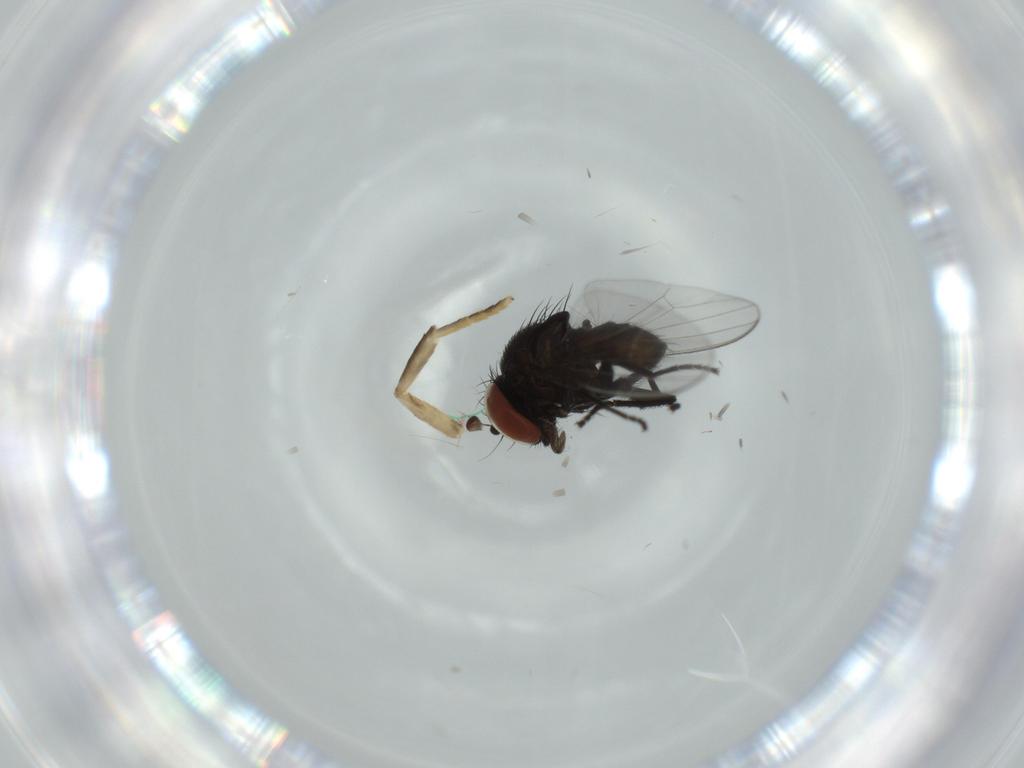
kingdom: Animalia
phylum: Arthropoda
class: Insecta
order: Diptera
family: Milichiidae
